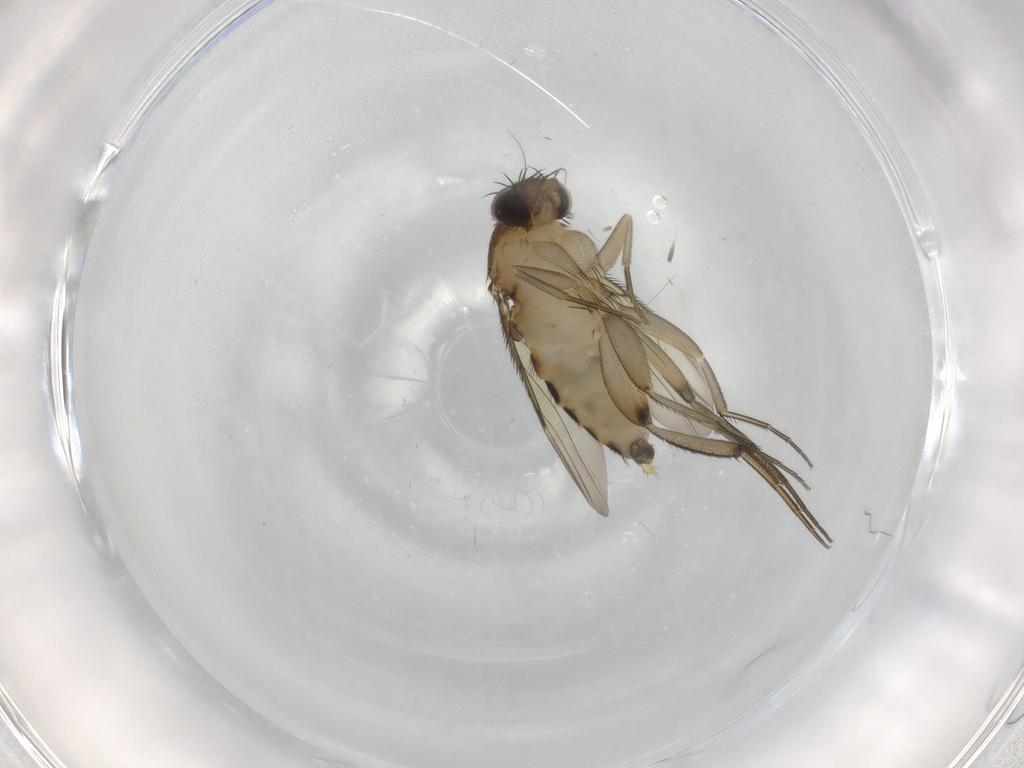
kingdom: Animalia
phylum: Arthropoda
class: Insecta
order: Diptera
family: Phoridae
